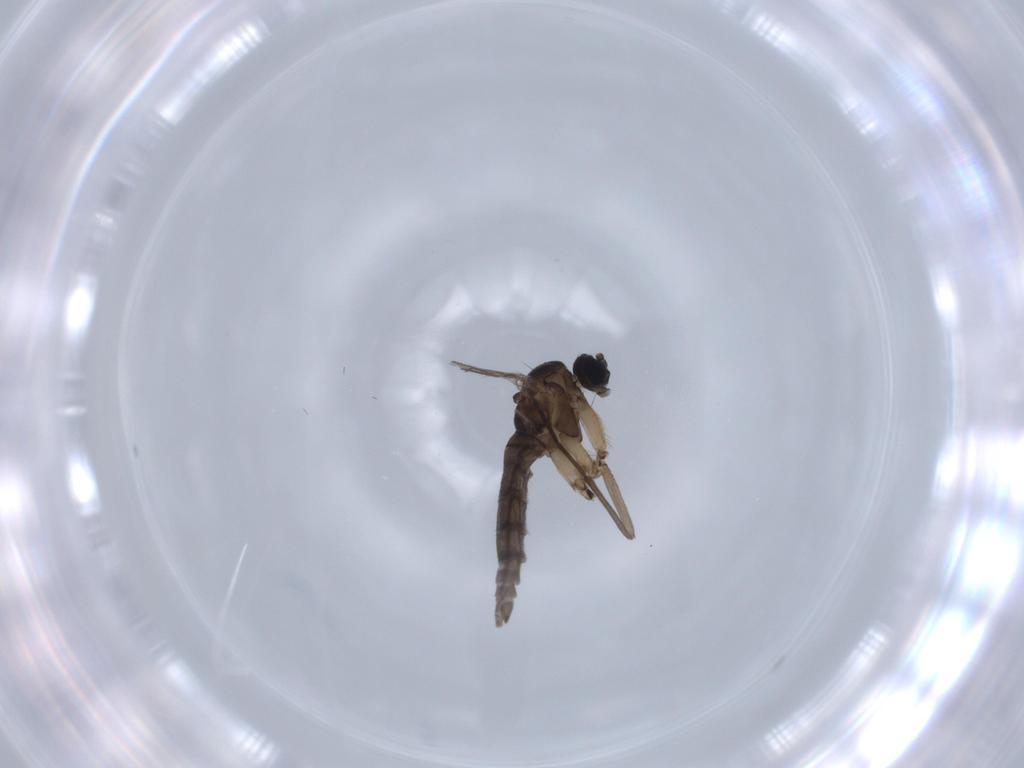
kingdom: Animalia
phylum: Arthropoda
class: Insecta
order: Diptera
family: Sciaridae
